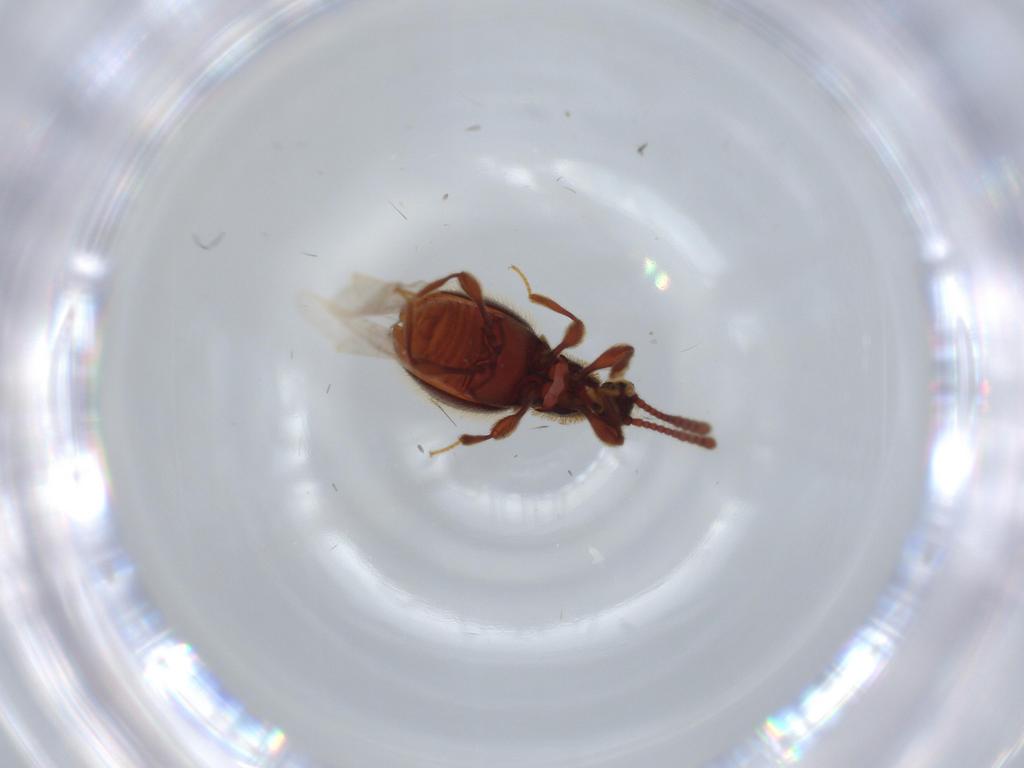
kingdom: Animalia
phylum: Arthropoda
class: Insecta
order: Coleoptera
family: Staphylinidae
